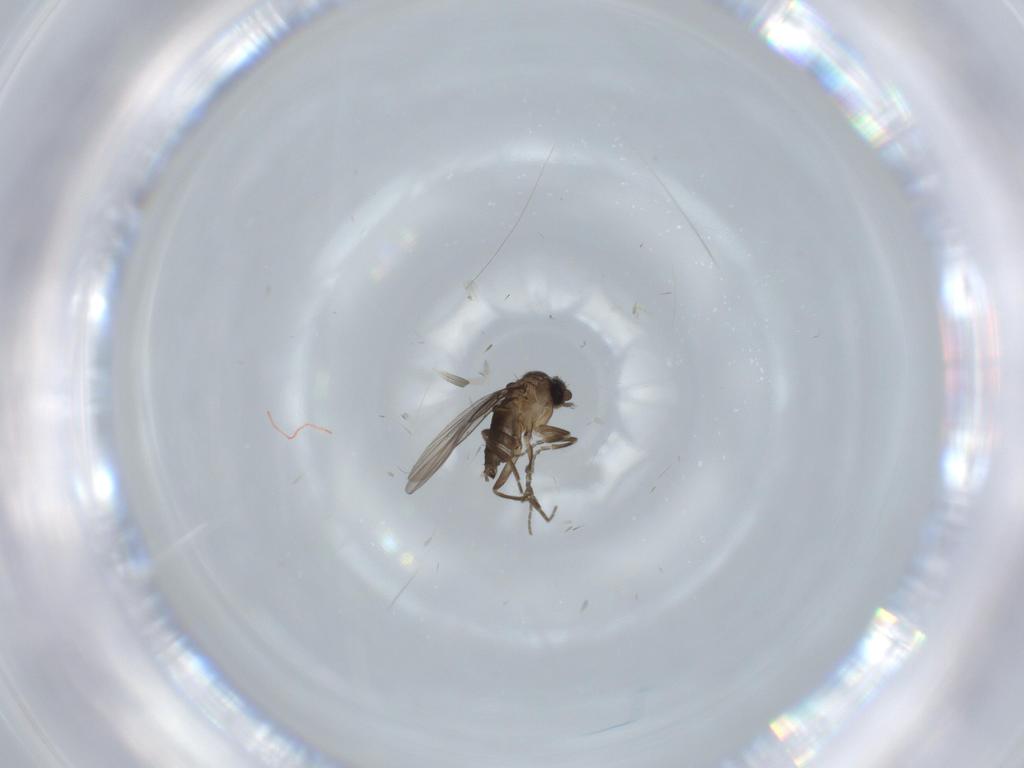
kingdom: Animalia
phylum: Arthropoda
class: Insecta
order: Diptera
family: Phoridae
